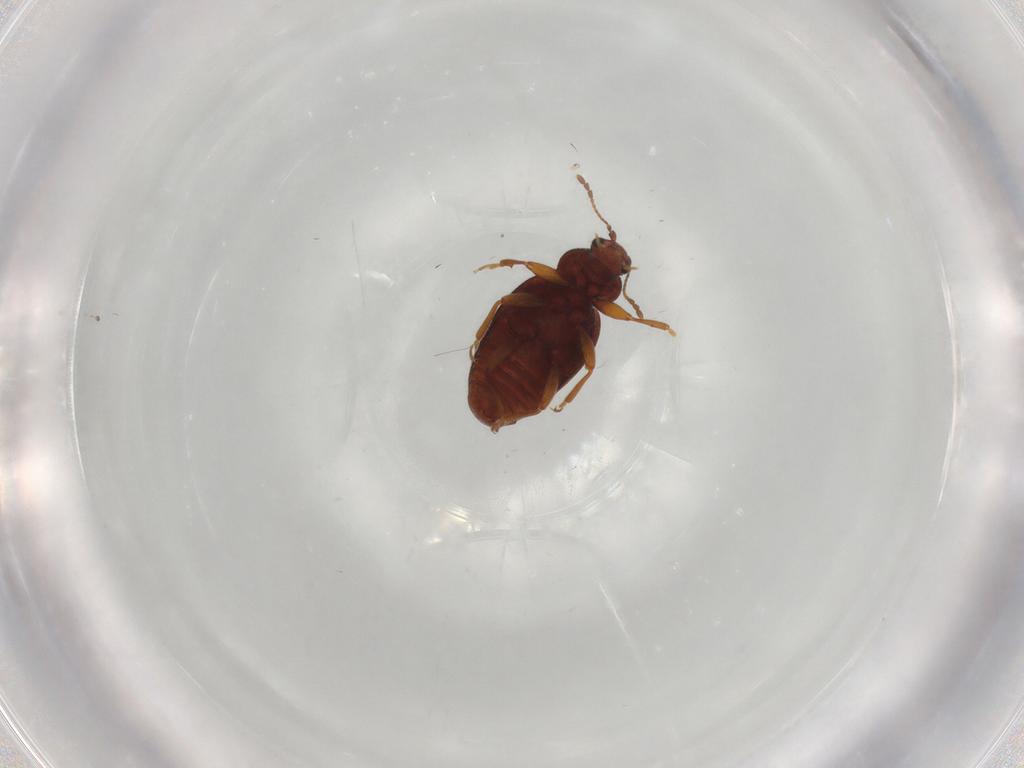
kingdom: Animalia
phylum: Arthropoda
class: Insecta
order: Coleoptera
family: Latridiidae
